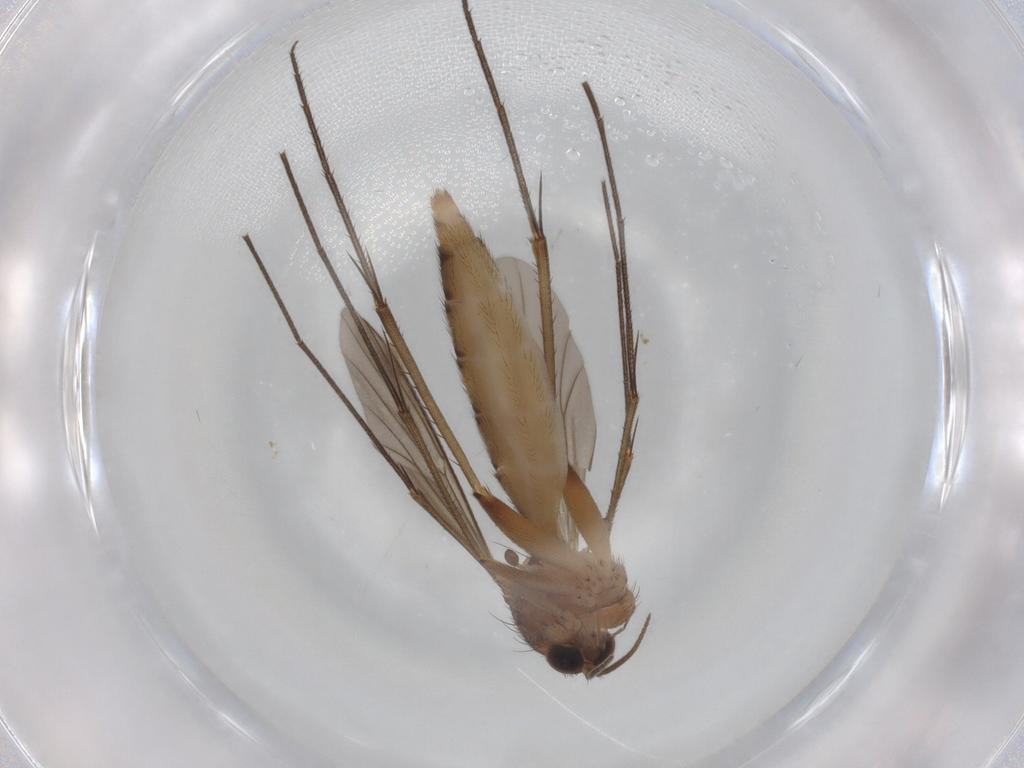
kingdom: Animalia
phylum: Arthropoda
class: Insecta
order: Diptera
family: Mycetophilidae
